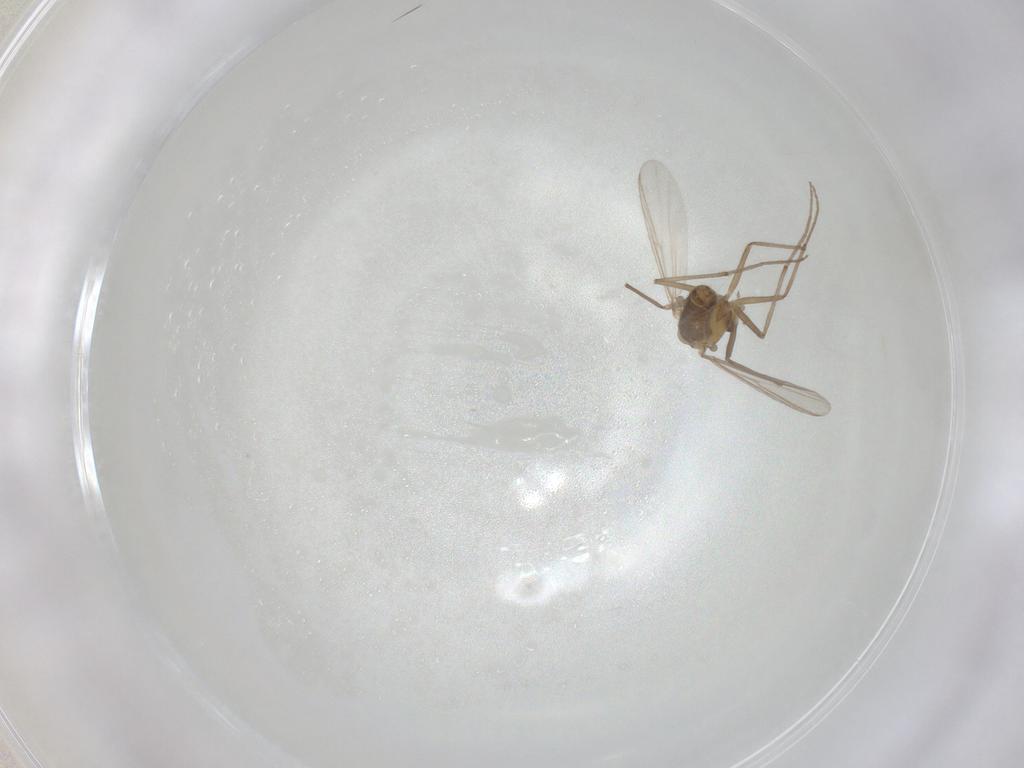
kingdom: Animalia
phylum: Arthropoda
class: Insecta
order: Diptera
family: Chironomidae
